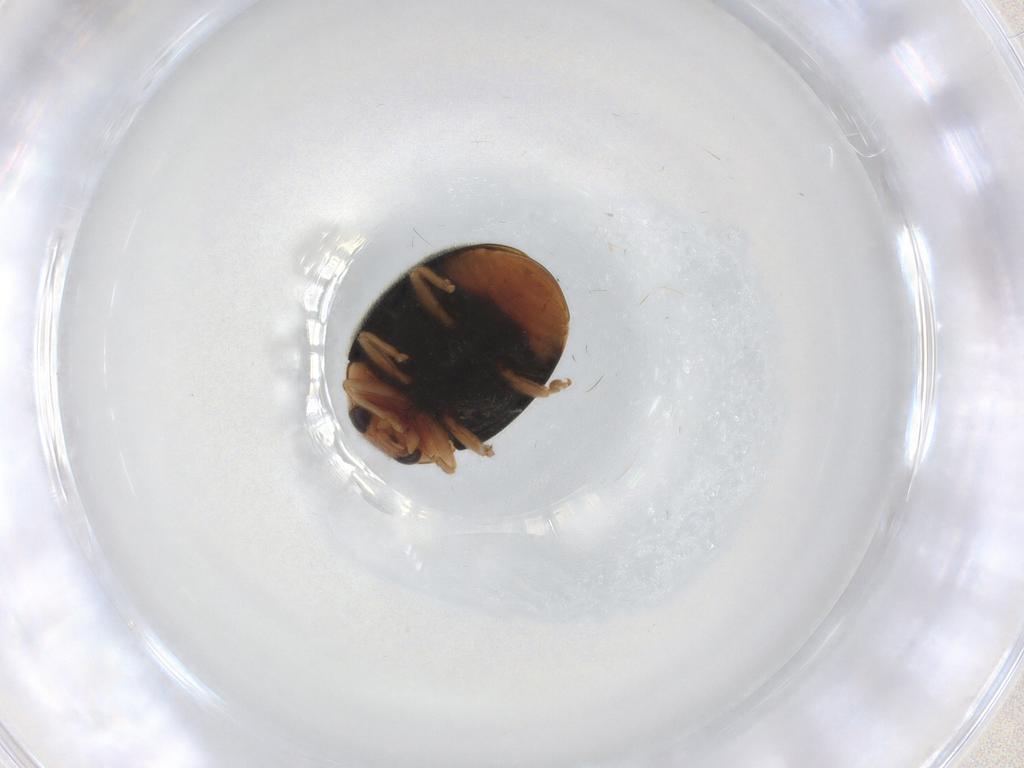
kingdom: Animalia
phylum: Arthropoda
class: Insecta
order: Coleoptera
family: Coccinellidae
